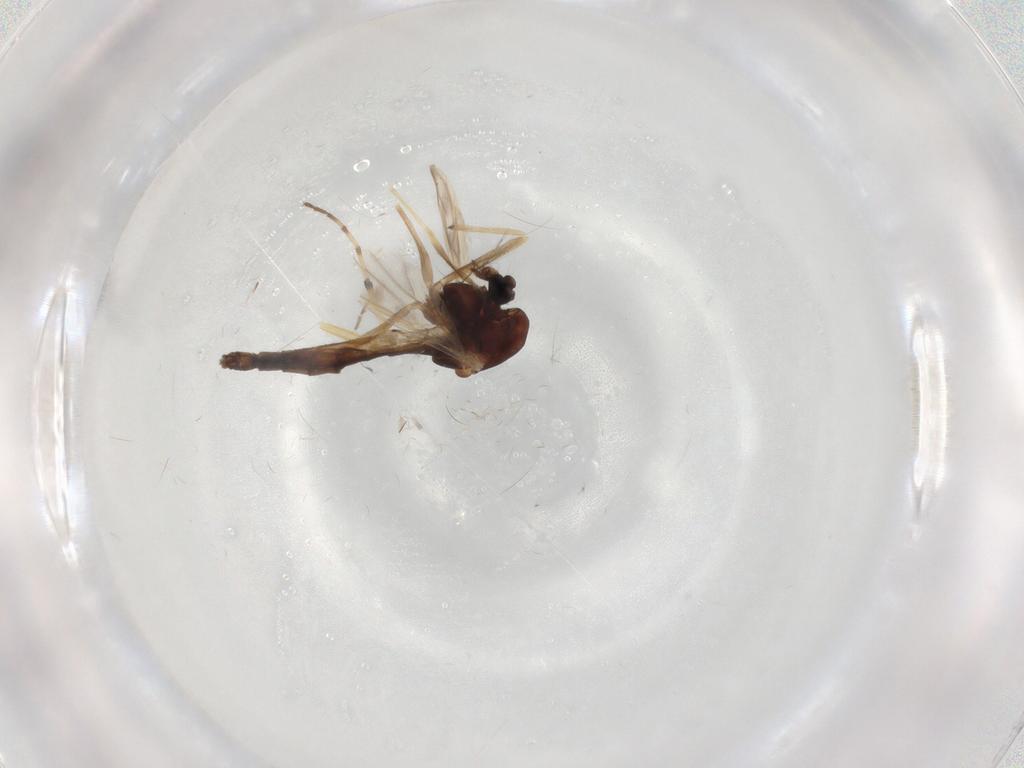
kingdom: Animalia
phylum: Arthropoda
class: Insecta
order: Diptera
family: Chironomidae
